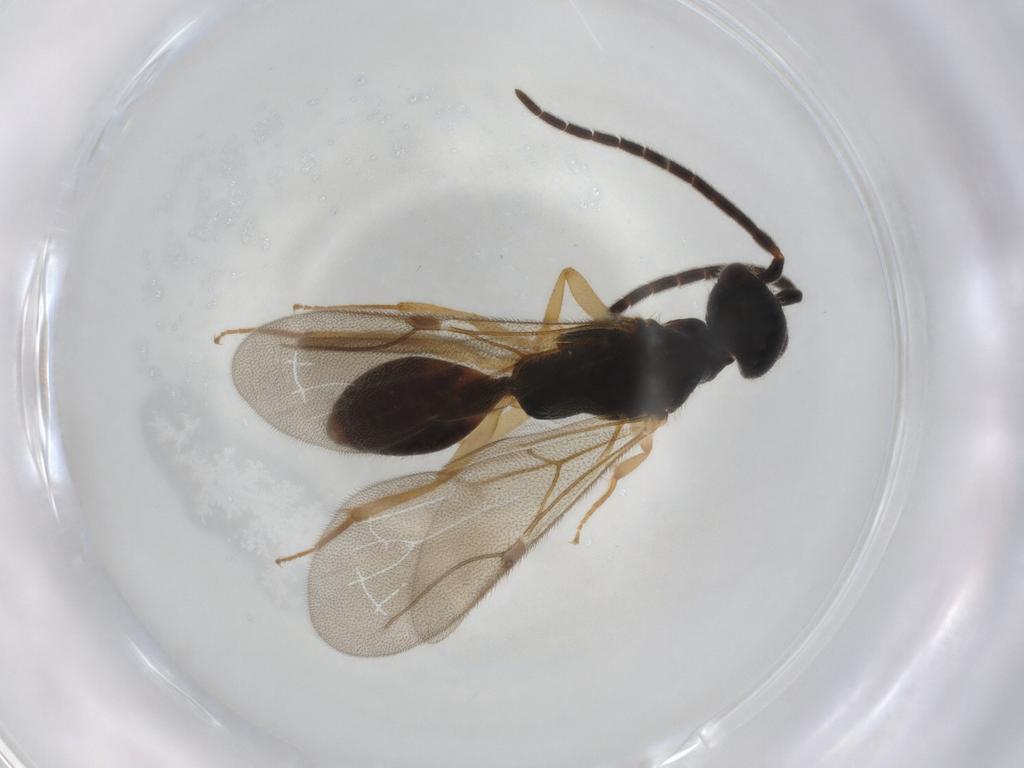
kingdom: Animalia
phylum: Arthropoda
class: Insecta
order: Hymenoptera
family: Platygastridae
